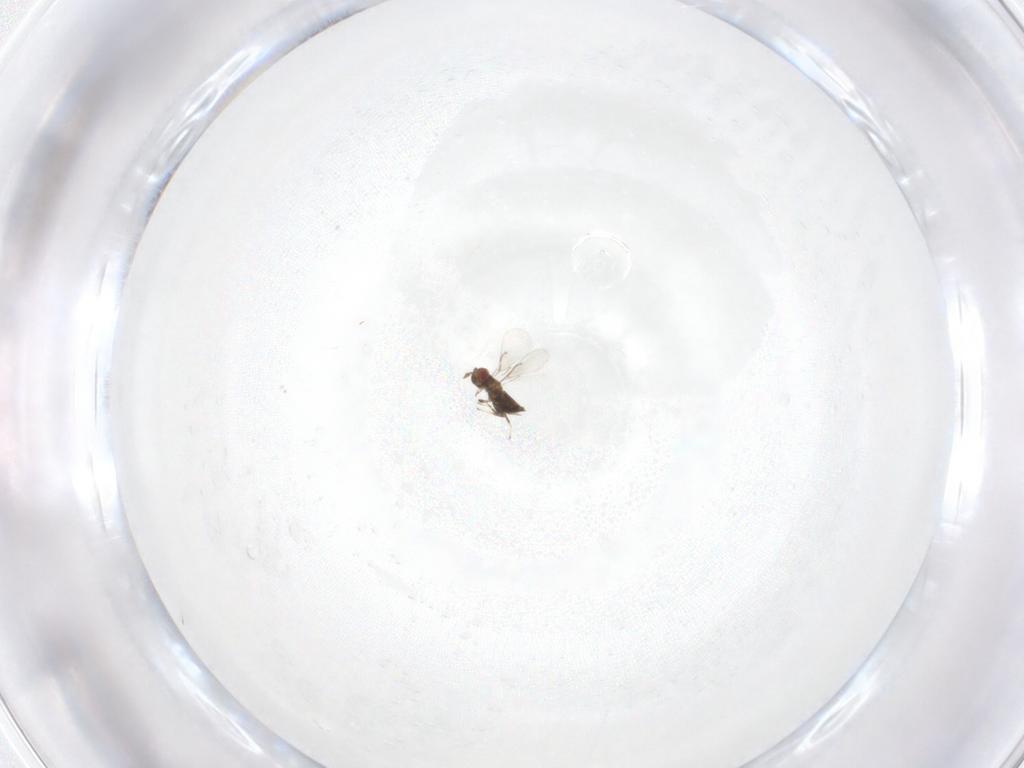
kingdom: Animalia
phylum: Arthropoda
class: Insecta
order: Hymenoptera
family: Trichogrammatidae
